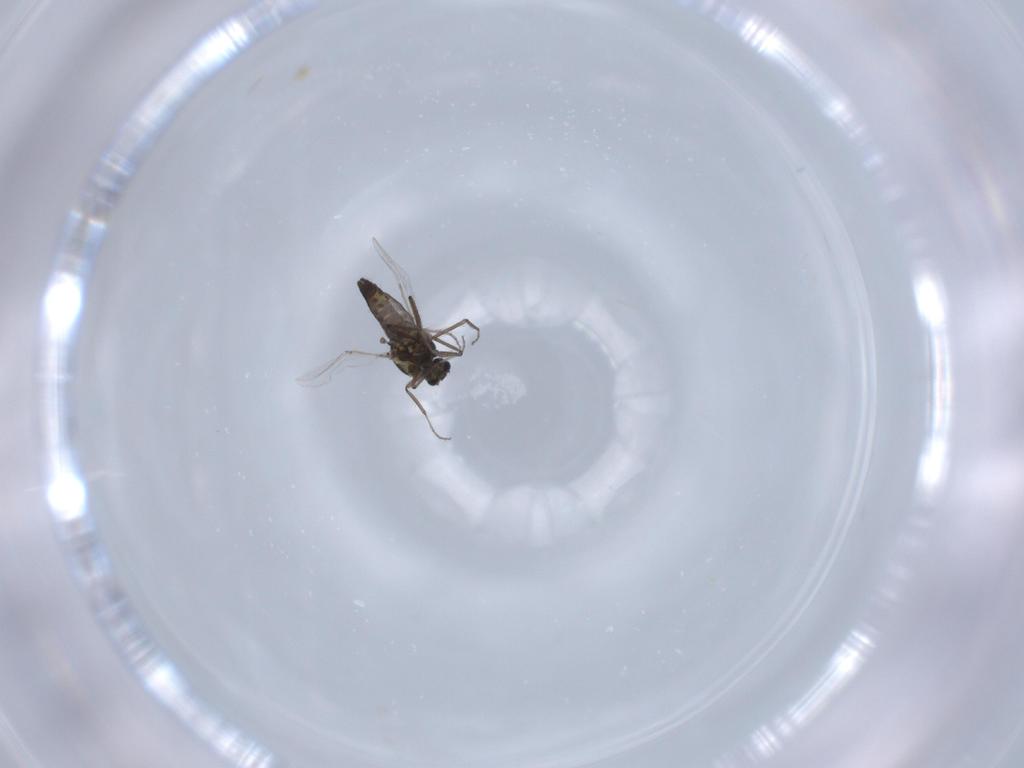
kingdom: Animalia
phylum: Arthropoda
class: Insecta
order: Diptera
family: Ceratopogonidae
